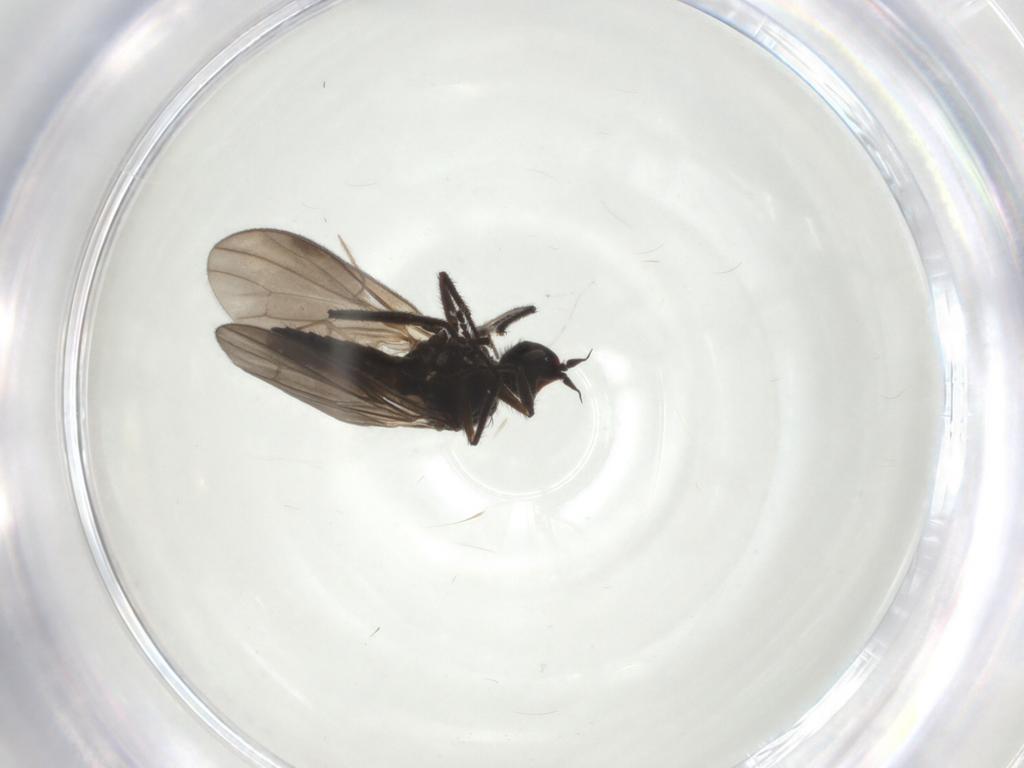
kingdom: Animalia
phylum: Arthropoda
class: Insecta
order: Diptera
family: Hybotidae
